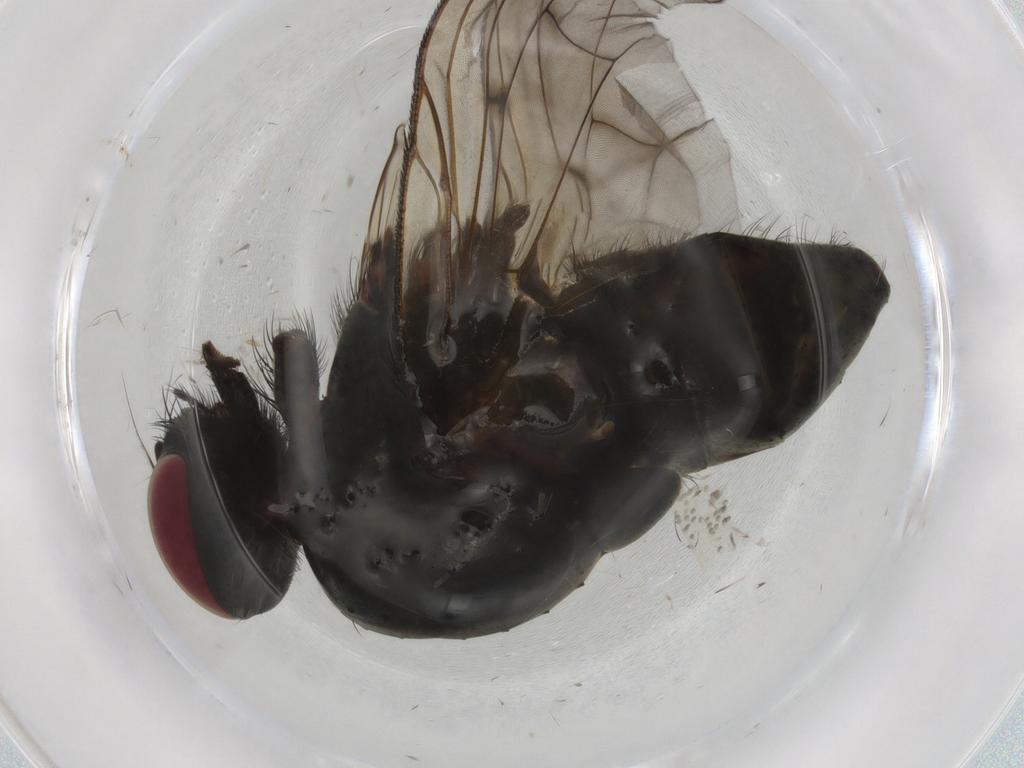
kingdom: Animalia
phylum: Arthropoda
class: Insecta
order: Diptera
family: Muscidae
